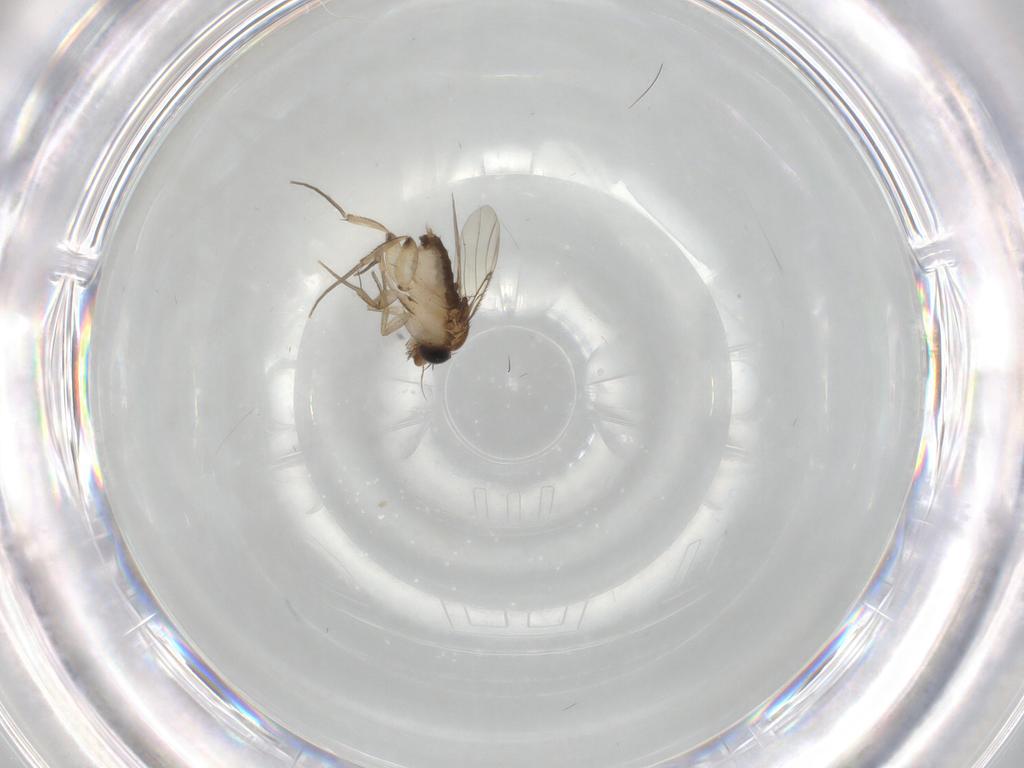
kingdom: Animalia
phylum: Arthropoda
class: Insecta
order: Diptera
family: Phoridae
